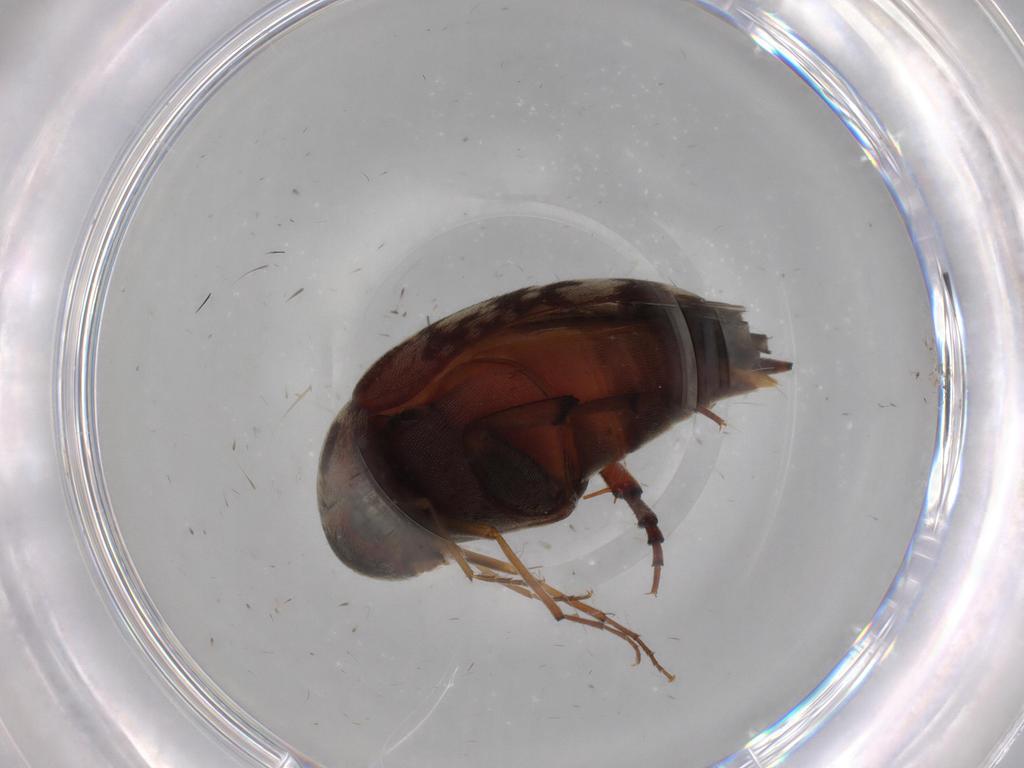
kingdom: Animalia
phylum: Arthropoda
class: Insecta
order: Coleoptera
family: Mordellidae
